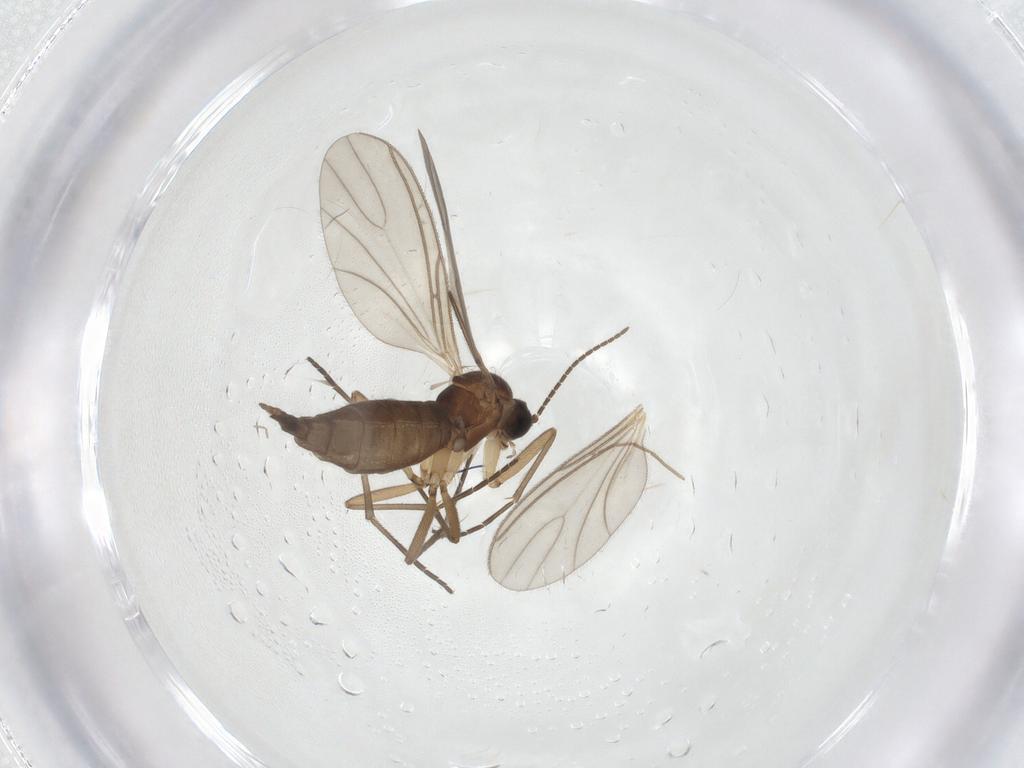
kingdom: Animalia
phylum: Arthropoda
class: Insecta
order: Diptera
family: Sciaridae
